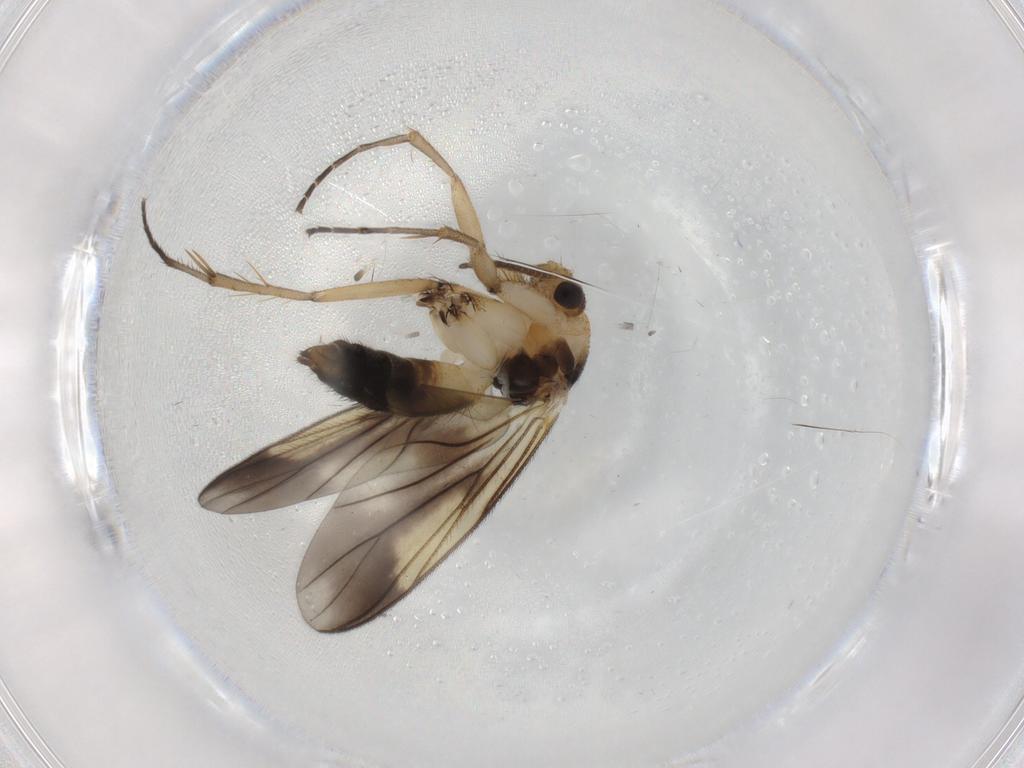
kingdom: Animalia
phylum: Arthropoda
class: Insecta
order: Diptera
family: Mycetophilidae
